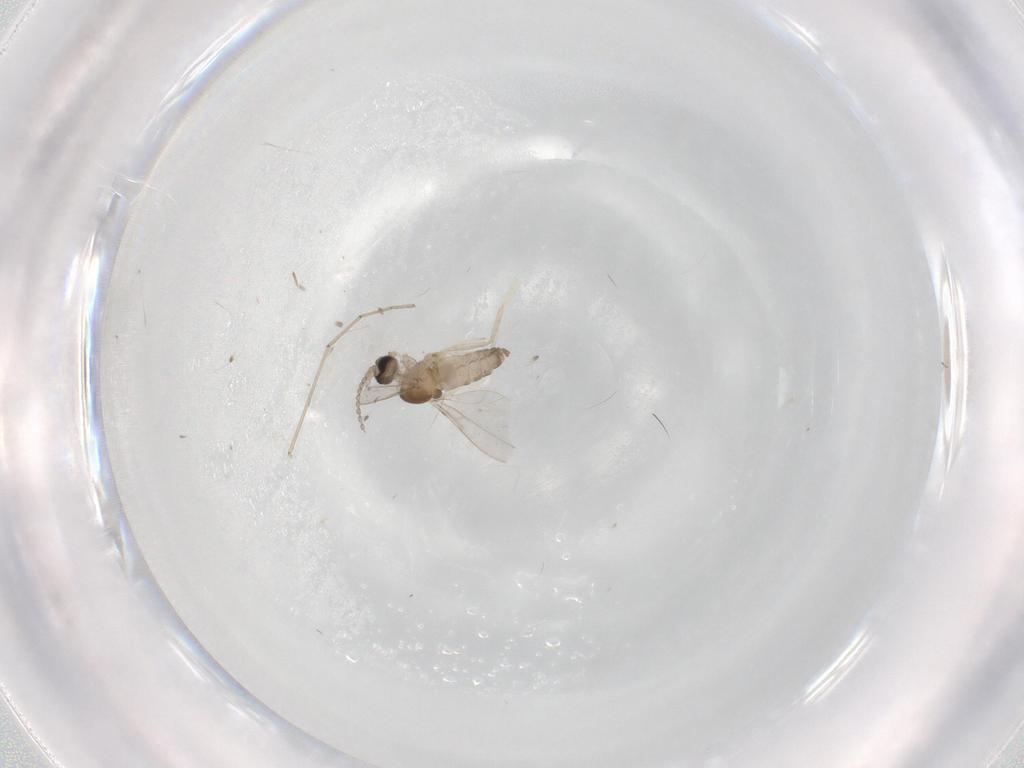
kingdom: Animalia
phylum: Arthropoda
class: Insecta
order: Diptera
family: Cecidomyiidae
